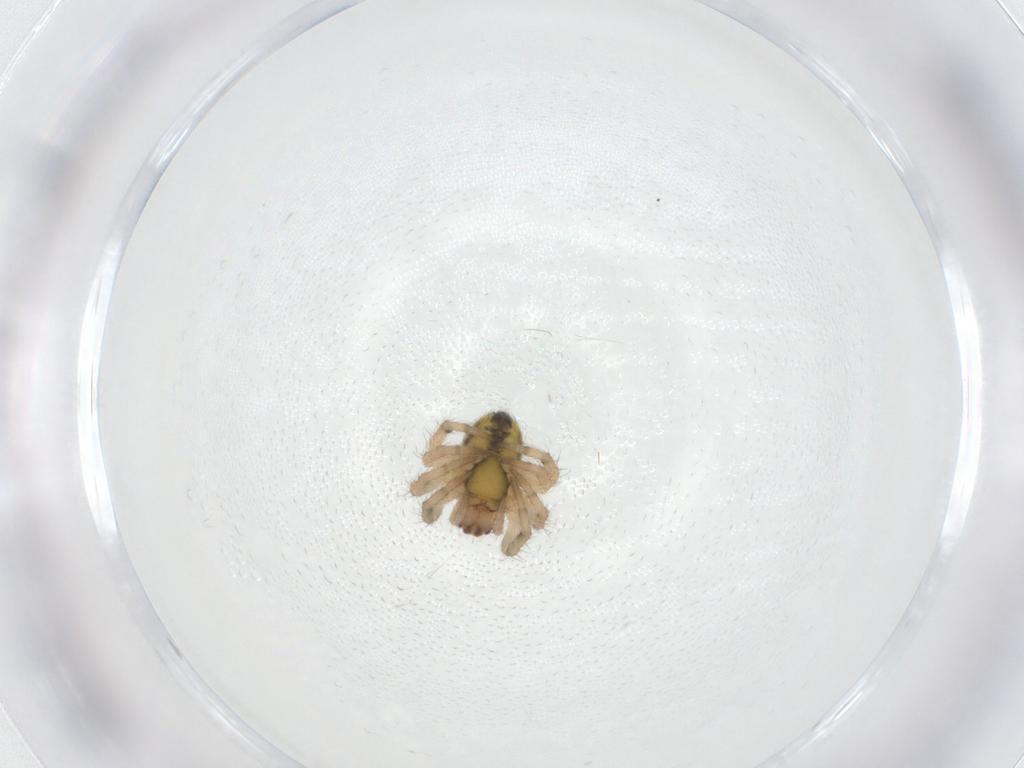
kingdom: Animalia
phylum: Arthropoda
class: Arachnida
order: Araneae
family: Araneidae
